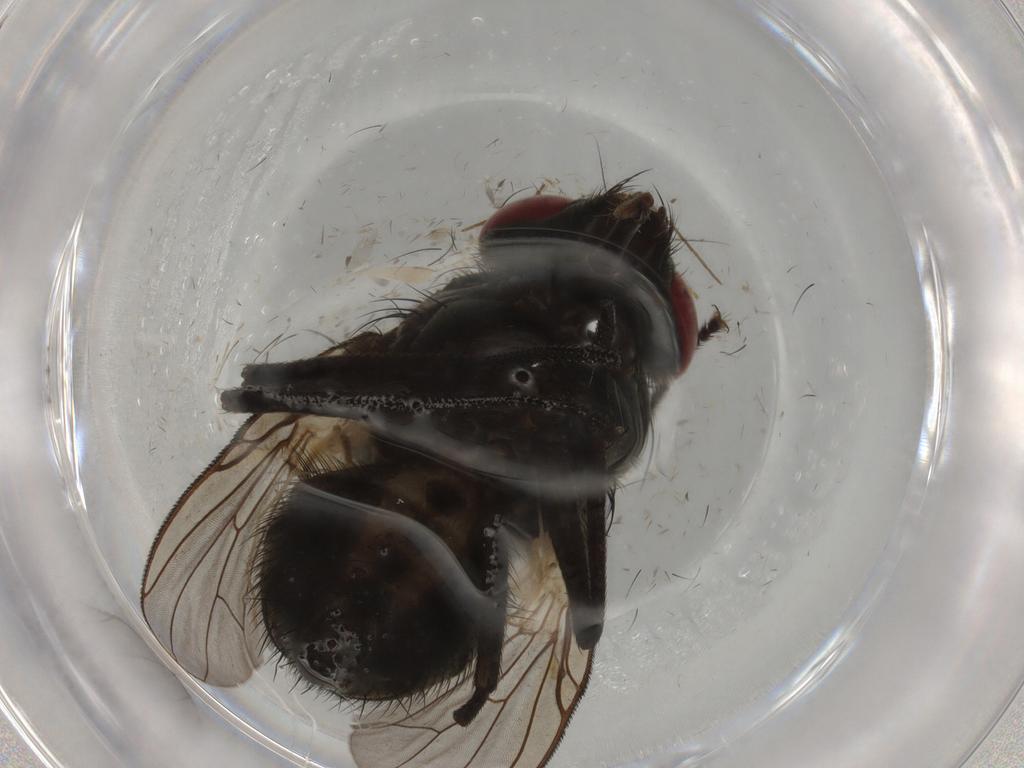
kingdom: Animalia
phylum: Arthropoda
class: Insecta
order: Diptera
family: Muscidae
